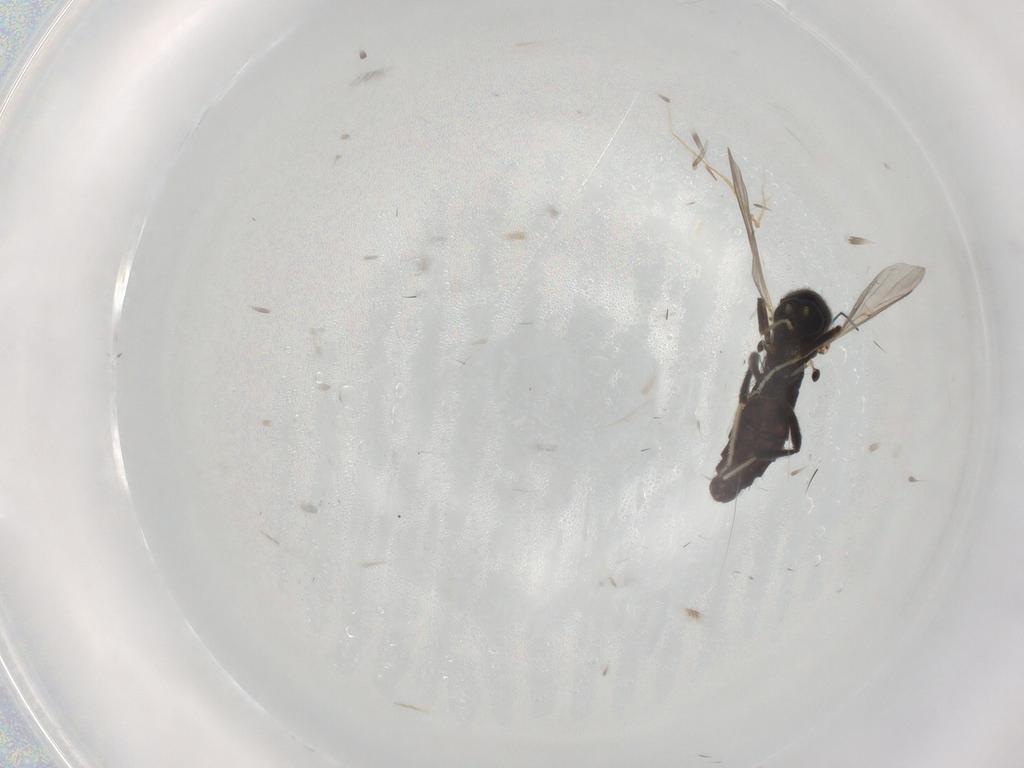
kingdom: Animalia
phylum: Arthropoda
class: Insecta
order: Diptera
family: Ceratopogonidae
